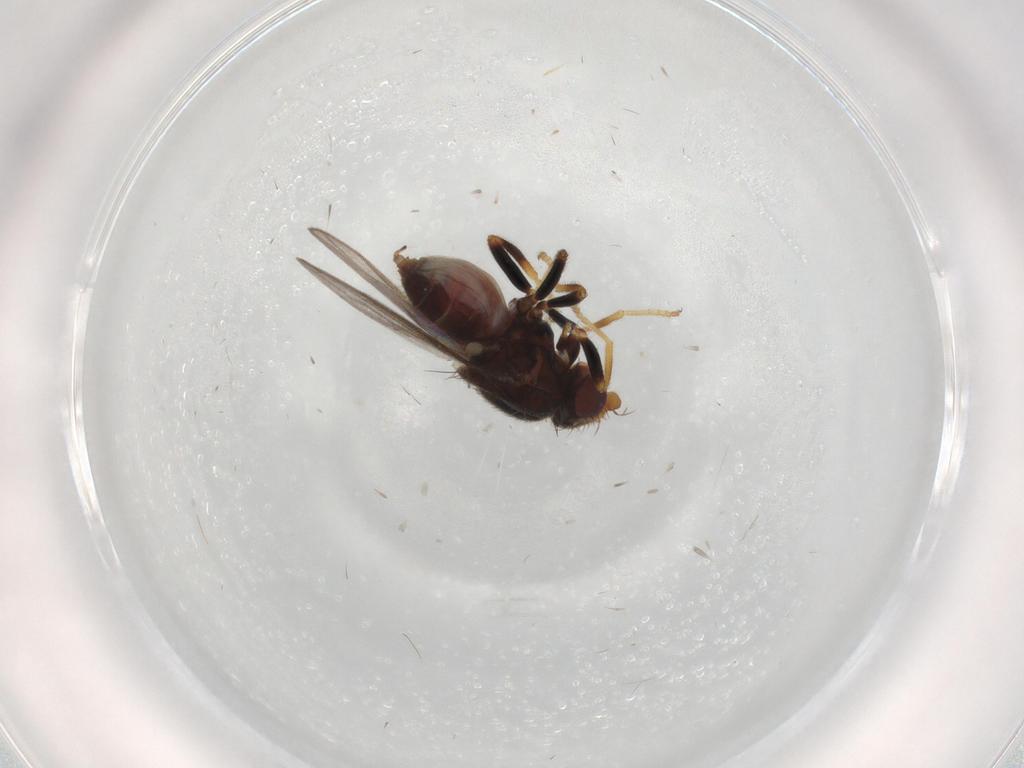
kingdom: Animalia
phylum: Arthropoda
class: Insecta
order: Diptera
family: Chloropidae
